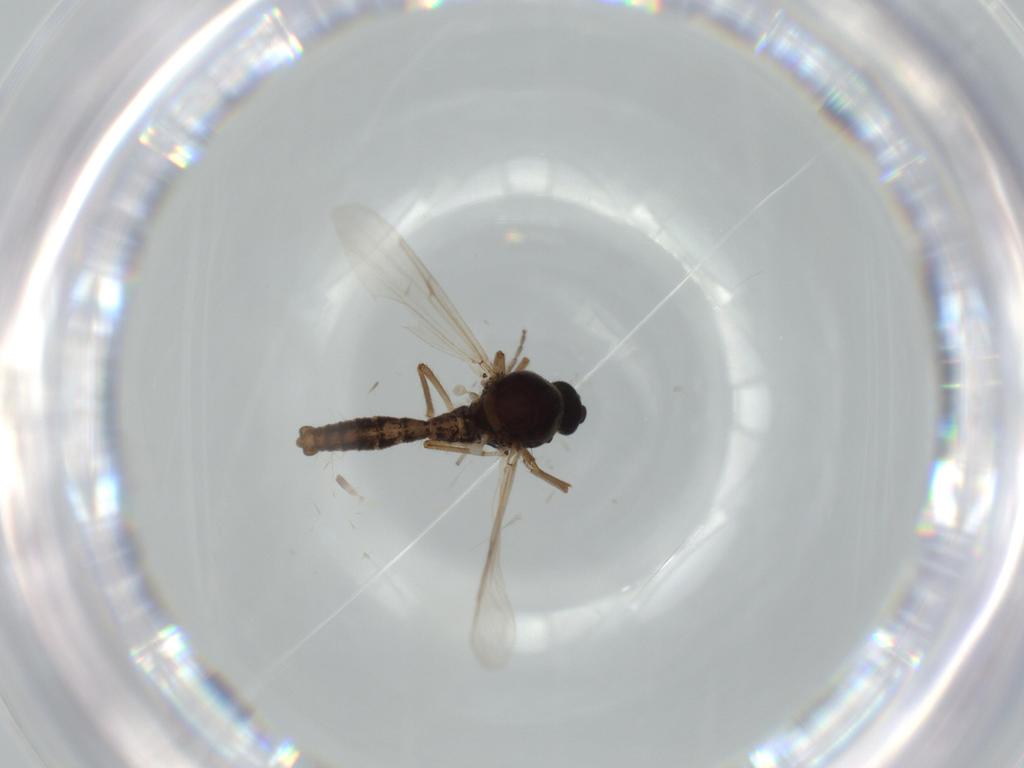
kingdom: Animalia
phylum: Arthropoda
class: Insecta
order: Diptera
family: Ceratopogonidae
